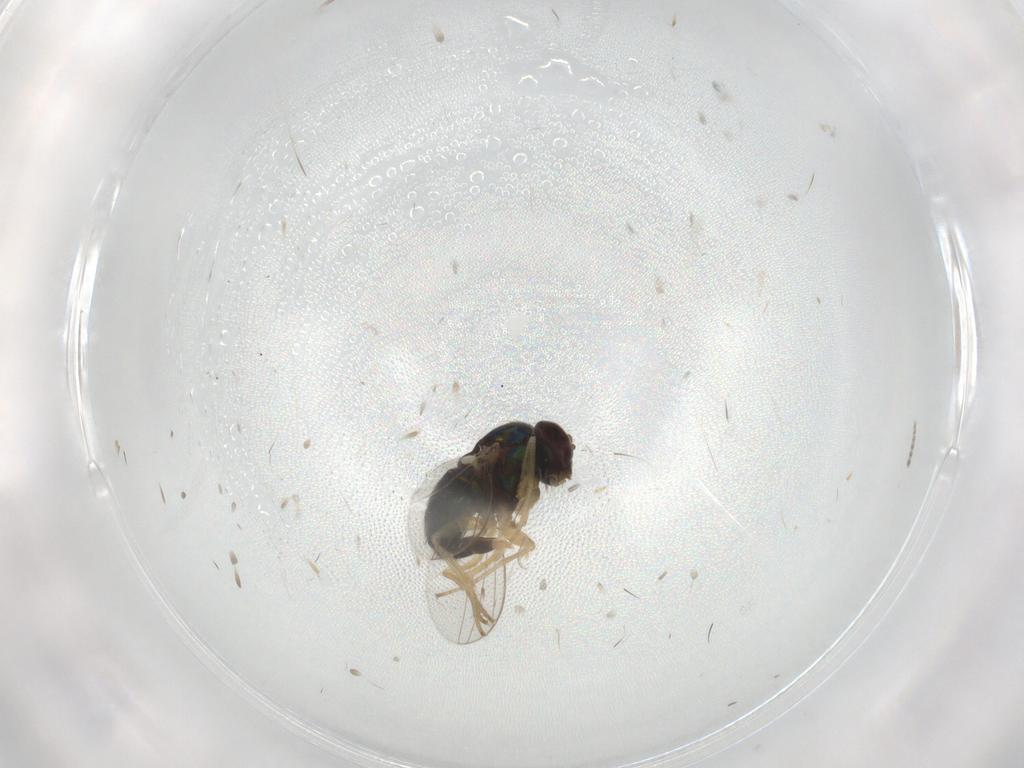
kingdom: Animalia
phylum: Arthropoda
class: Insecta
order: Diptera
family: Dolichopodidae
